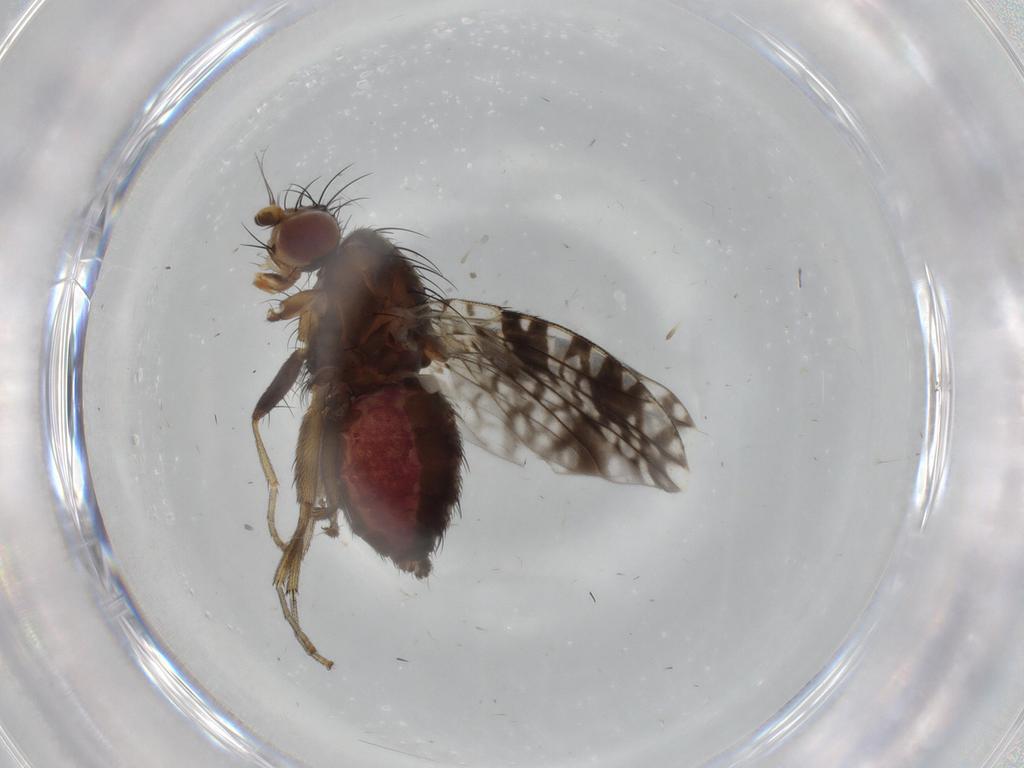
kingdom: Animalia
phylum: Arthropoda
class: Insecta
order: Diptera
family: Tephritidae
